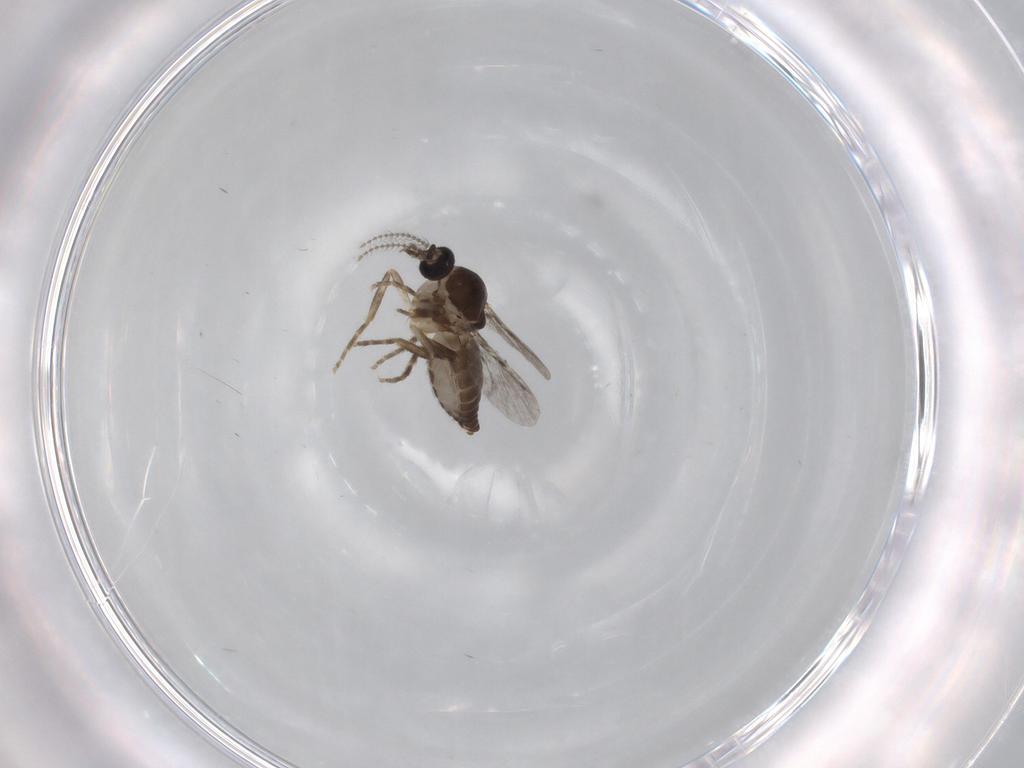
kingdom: Animalia
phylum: Arthropoda
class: Insecta
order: Diptera
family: Ceratopogonidae
